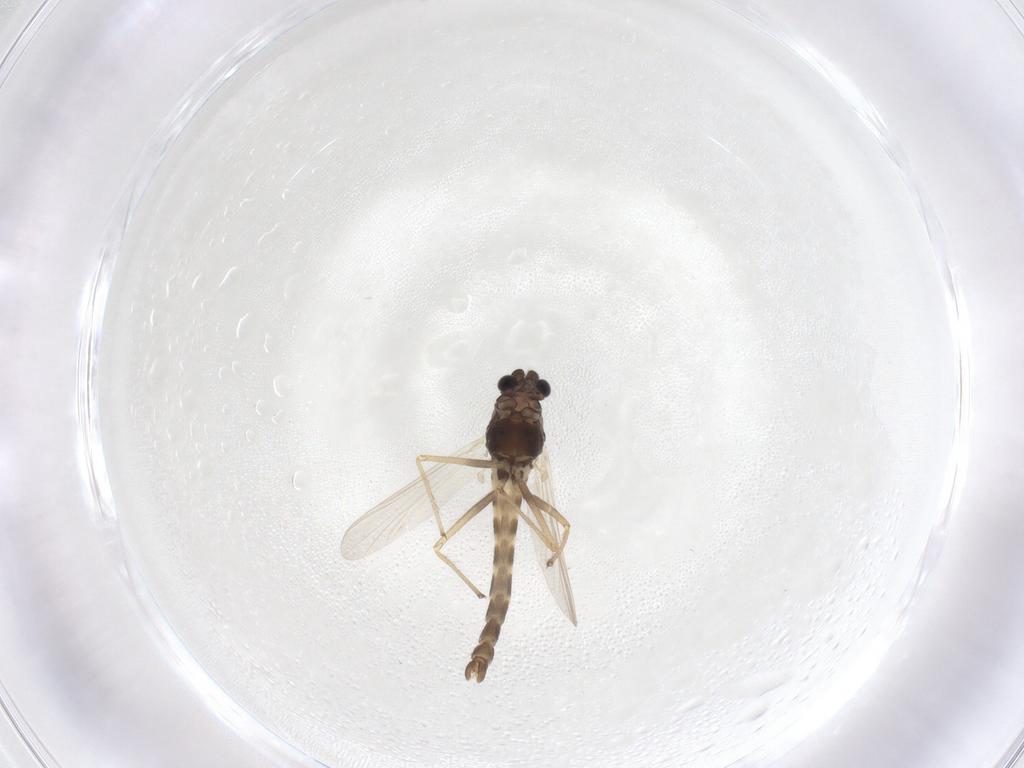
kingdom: Animalia
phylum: Arthropoda
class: Insecta
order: Diptera
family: Chironomidae
